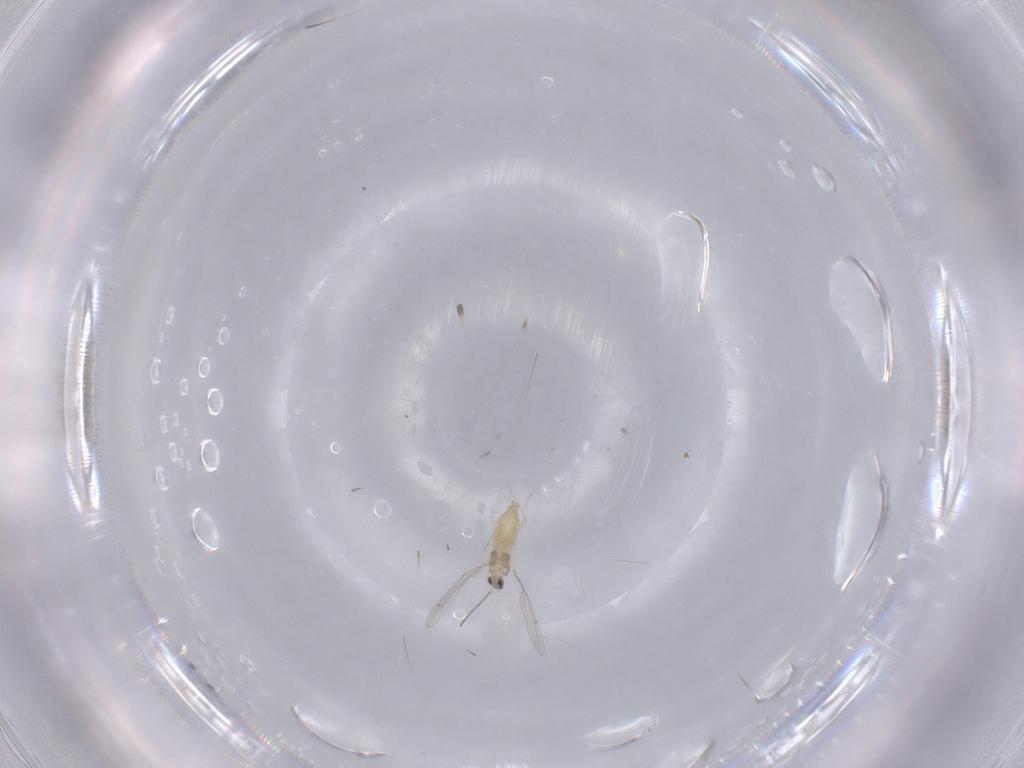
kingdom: Animalia
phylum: Arthropoda
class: Insecta
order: Diptera
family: Cecidomyiidae
